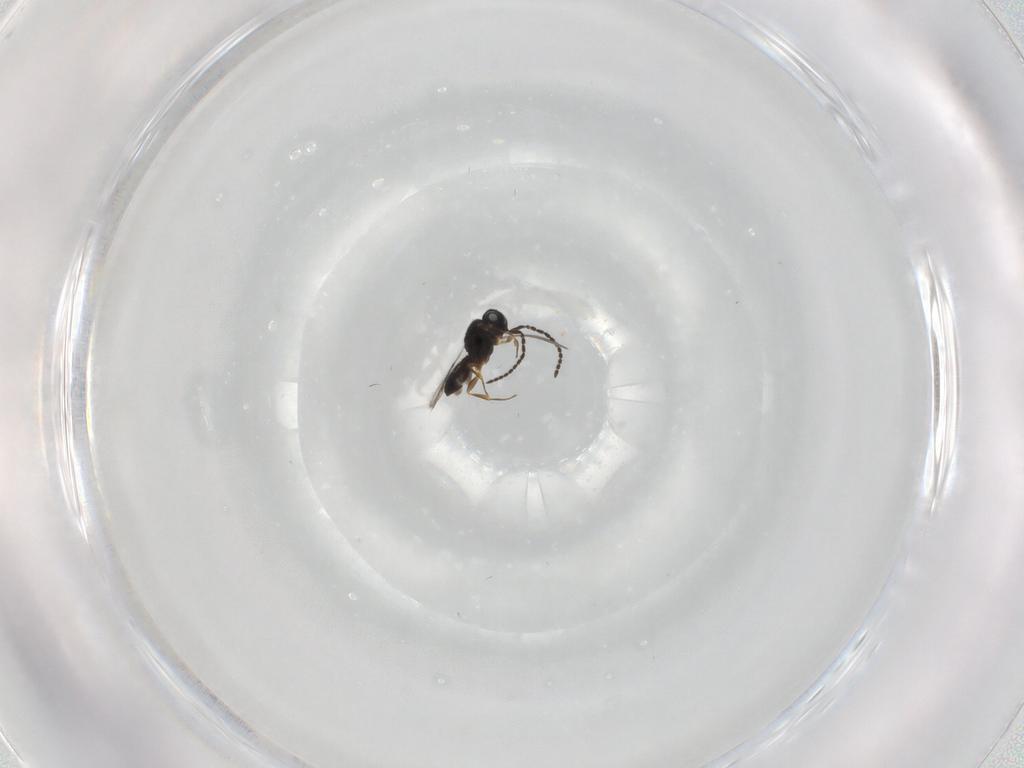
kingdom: Animalia
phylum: Arthropoda
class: Insecta
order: Hymenoptera
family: Scelionidae
